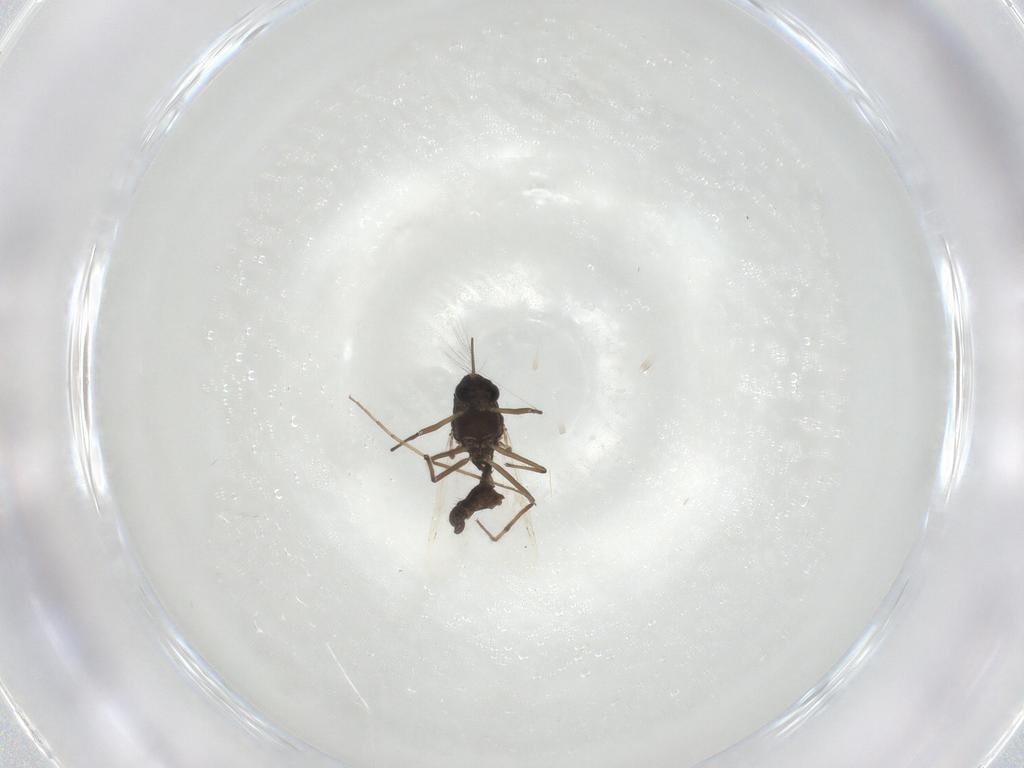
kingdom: Animalia
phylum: Arthropoda
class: Insecta
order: Diptera
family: Chironomidae
